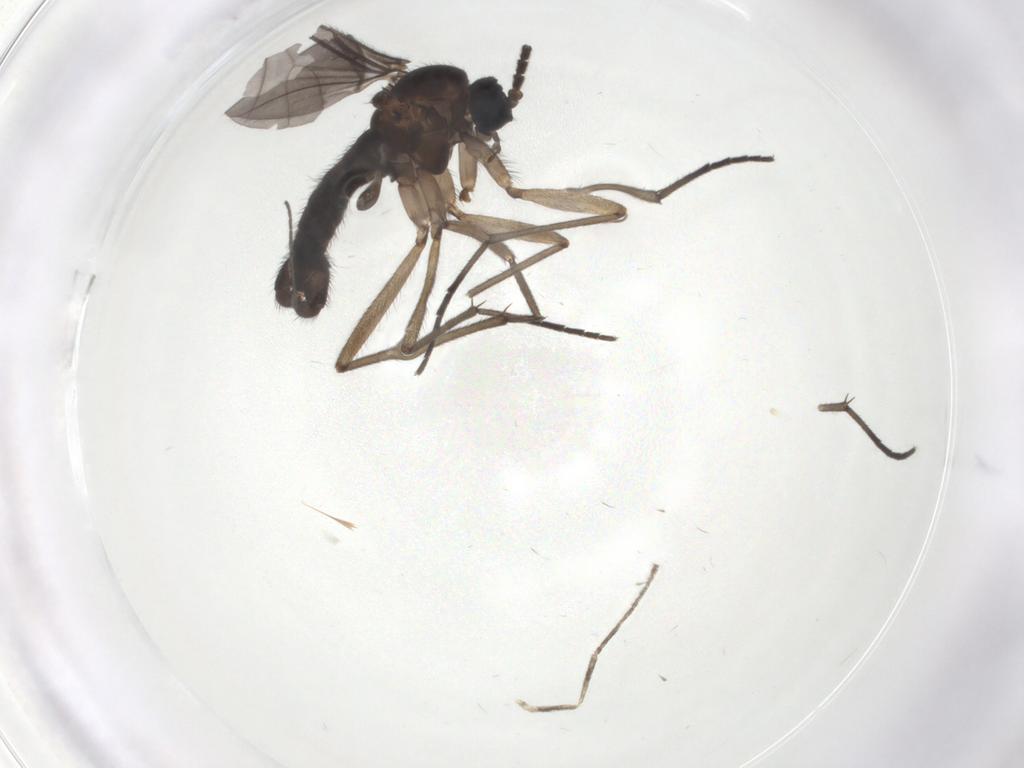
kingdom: Animalia
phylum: Arthropoda
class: Insecta
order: Diptera
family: Sciaridae
